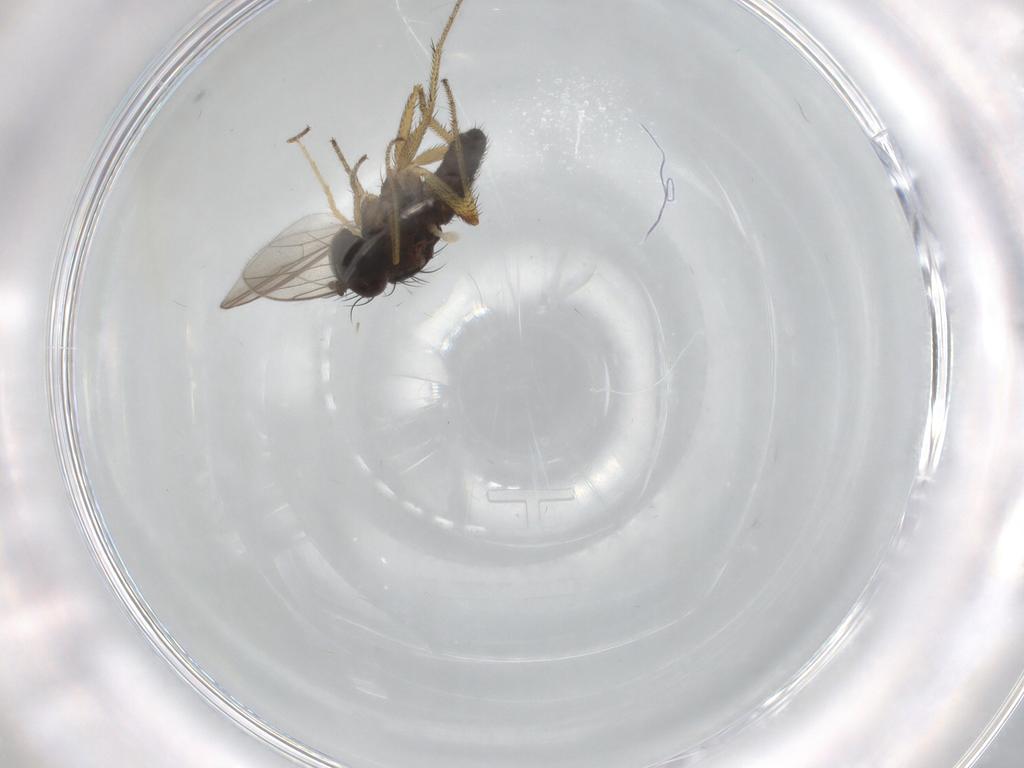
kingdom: Animalia
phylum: Arthropoda
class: Insecta
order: Diptera
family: Dolichopodidae
